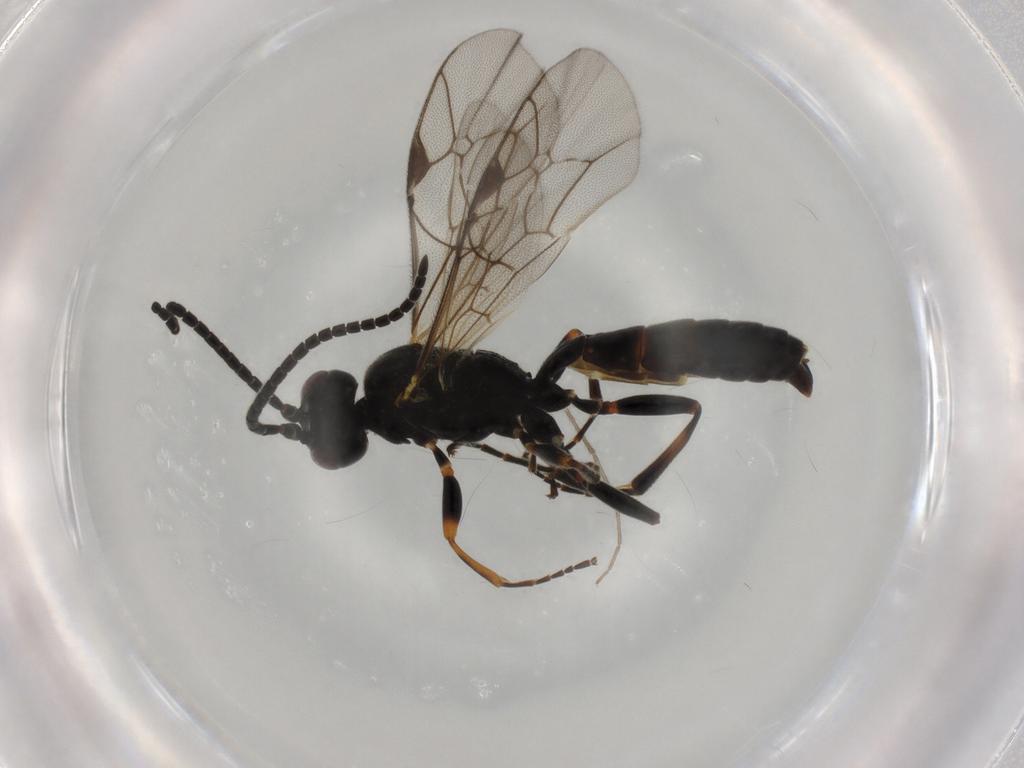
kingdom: Animalia
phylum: Arthropoda
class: Insecta
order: Hymenoptera
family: Ichneumonidae
